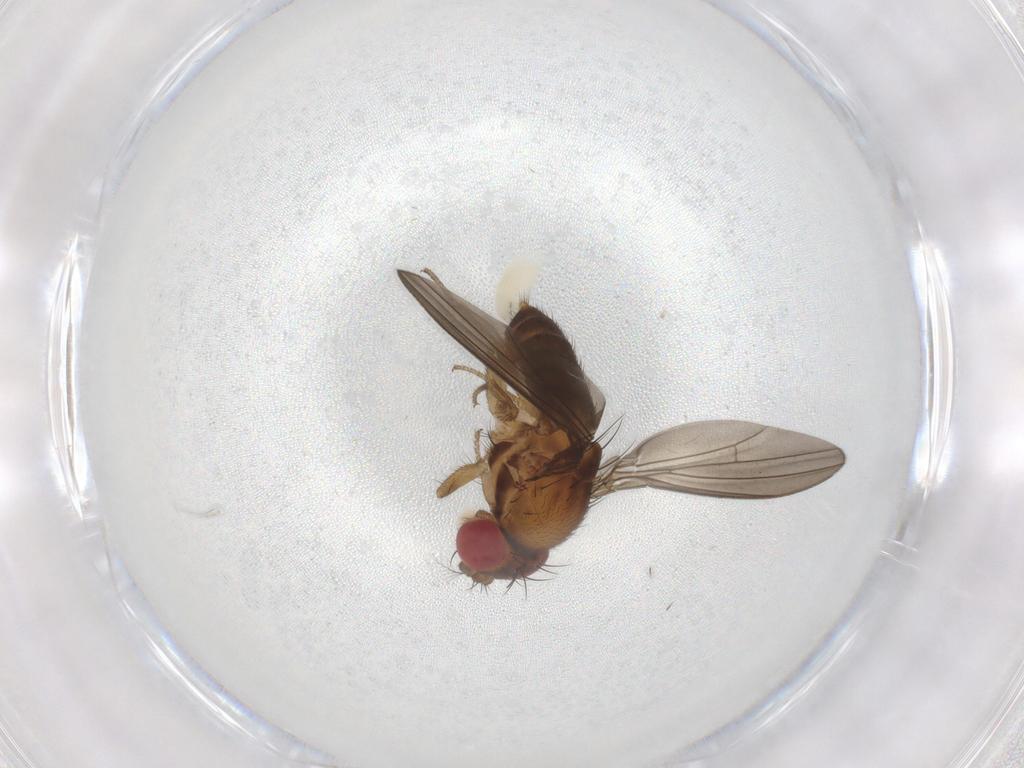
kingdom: Animalia
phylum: Arthropoda
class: Insecta
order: Diptera
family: Drosophilidae
